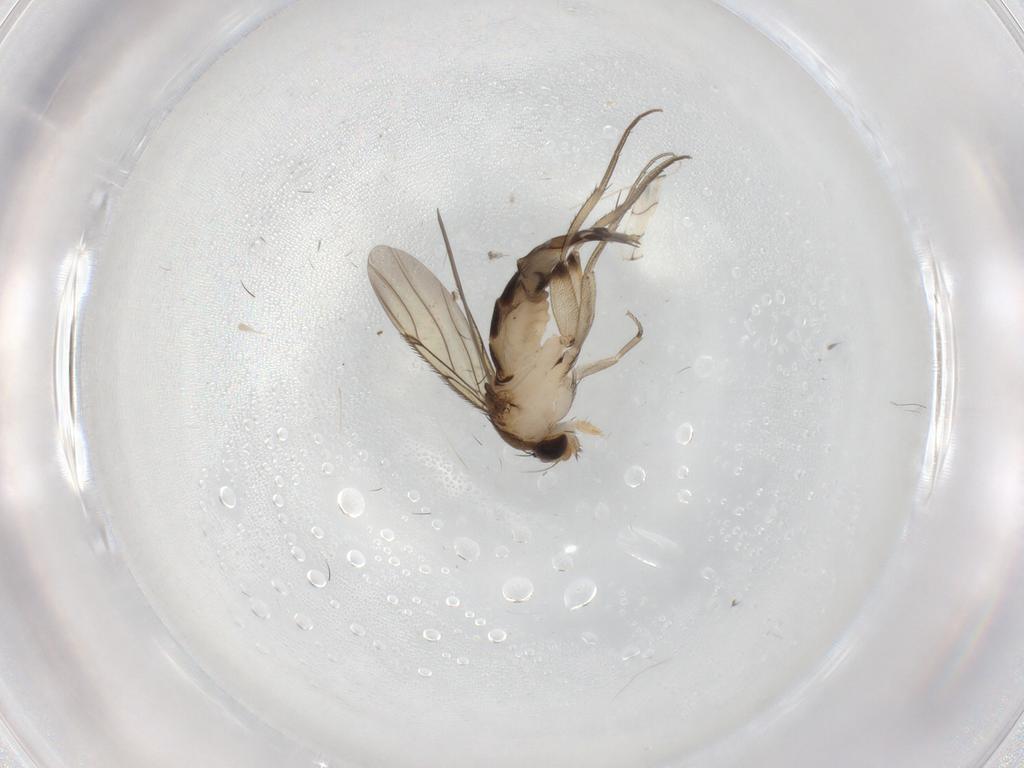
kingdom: Animalia
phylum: Arthropoda
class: Insecta
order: Diptera
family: Phoridae
